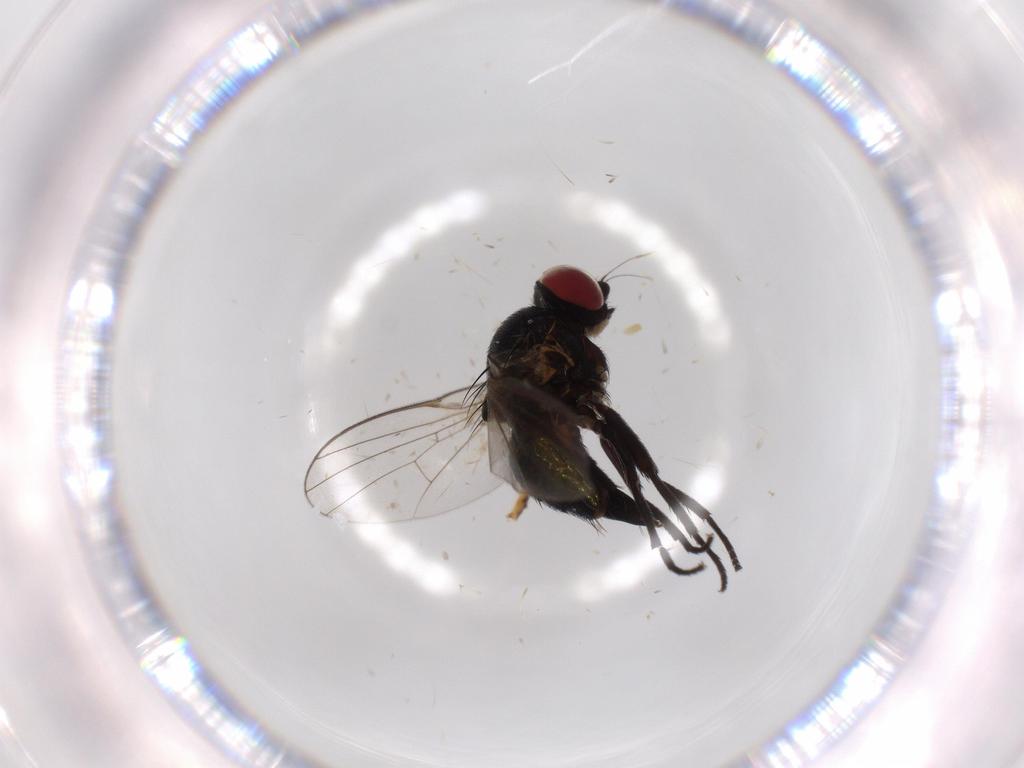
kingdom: Animalia
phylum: Arthropoda
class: Insecta
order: Diptera
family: Agromyzidae
